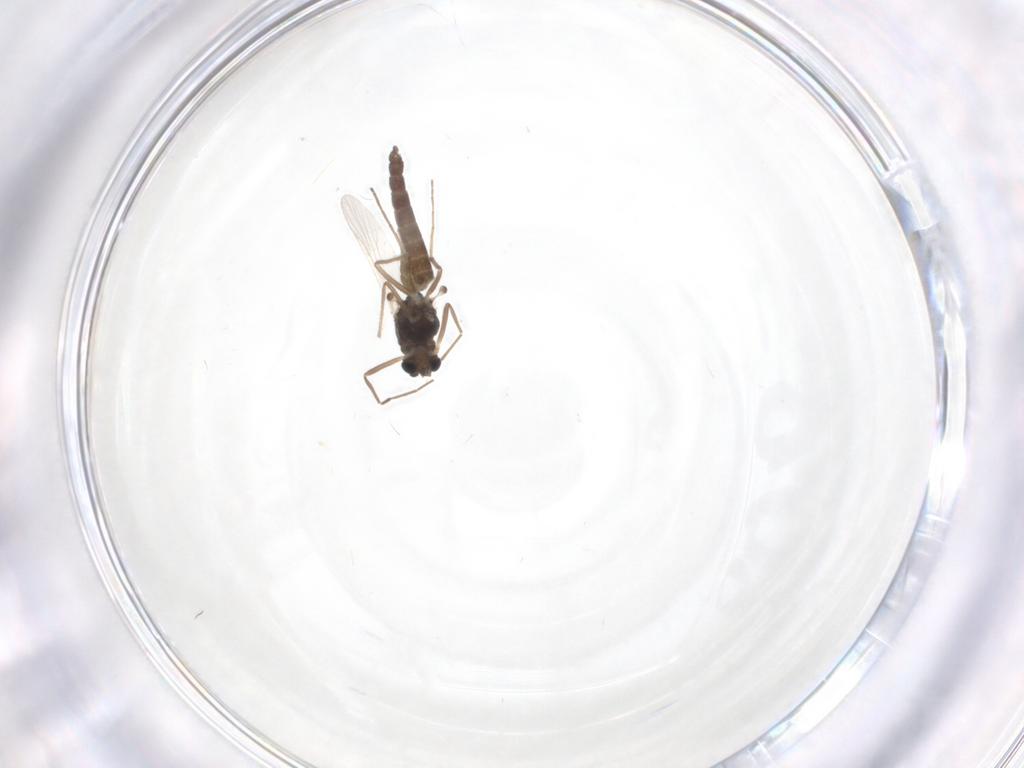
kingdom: Animalia
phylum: Arthropoda
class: Insecta
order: Diptera
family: Chironomidae
